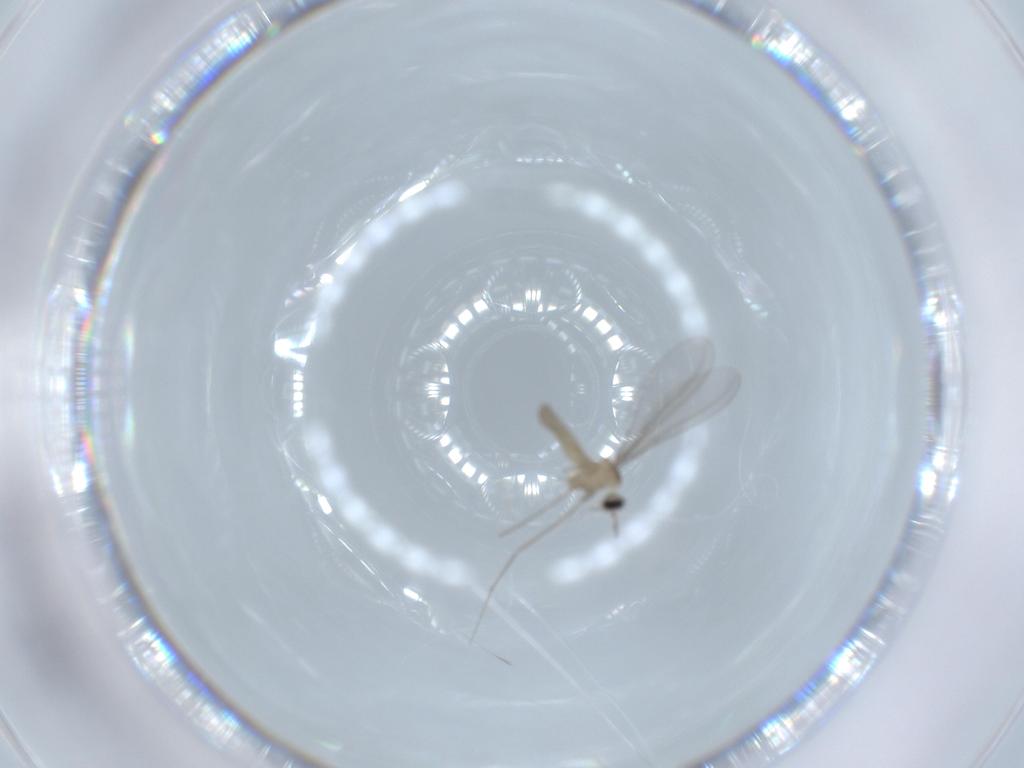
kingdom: Animalia
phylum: Arthropoda
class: Insecta
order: Diptera
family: Cecidomyiidae
